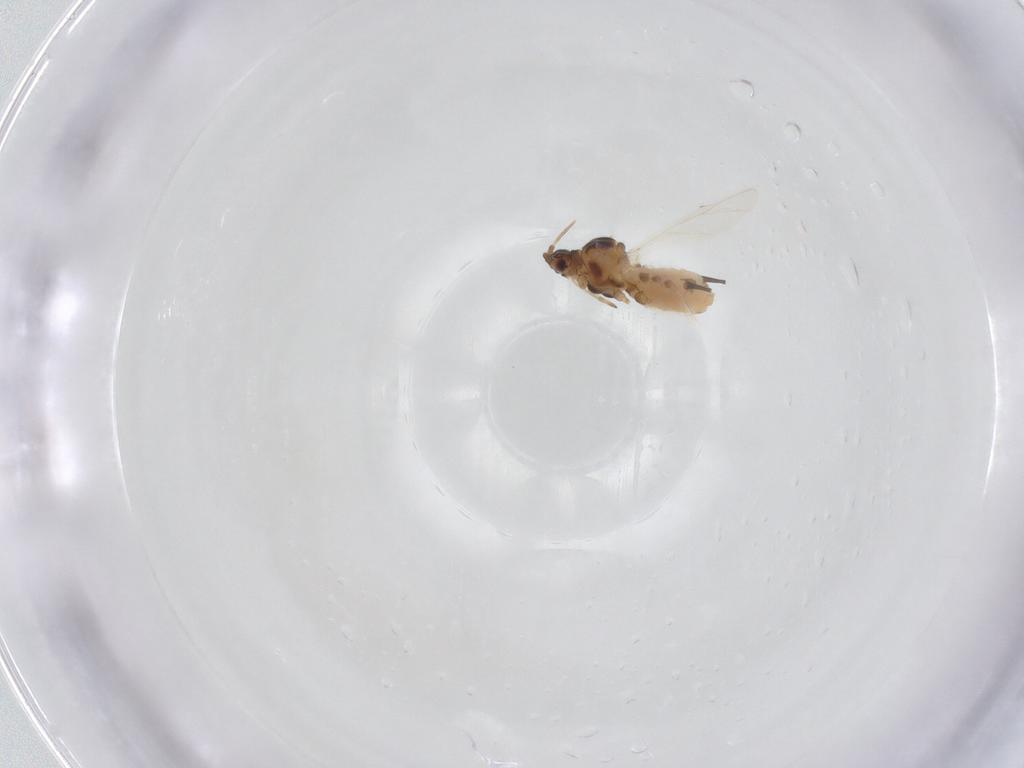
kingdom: Animalia
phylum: Arthropoda
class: Insecta
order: Hemiptera
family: Aphididae
